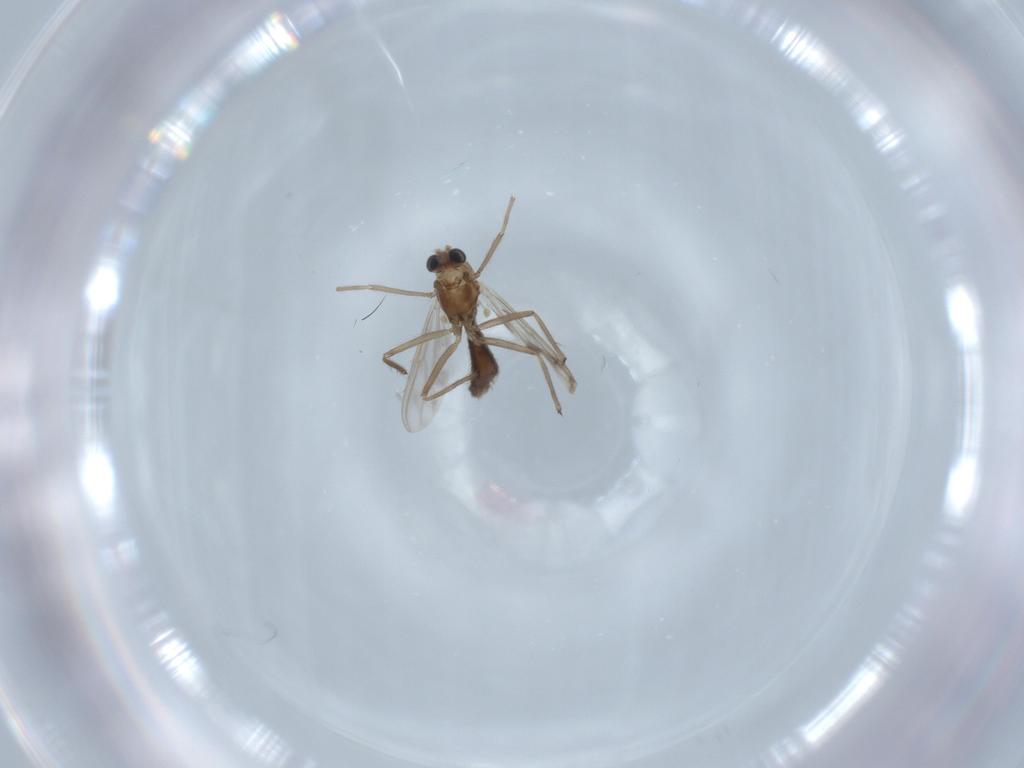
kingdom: Animalia
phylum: Arthropoda
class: Insecta
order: Diptera
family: Chironomidae
